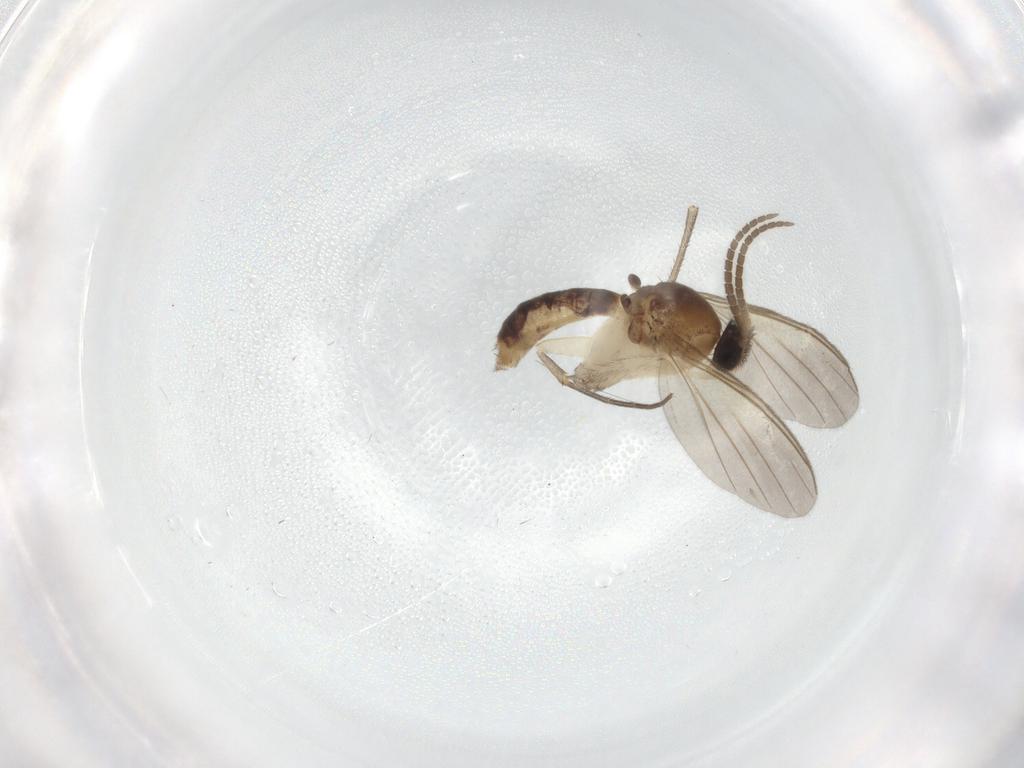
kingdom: Animalia
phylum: Arthropoda
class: Insecta
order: Diptera
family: Mycetophilidae
